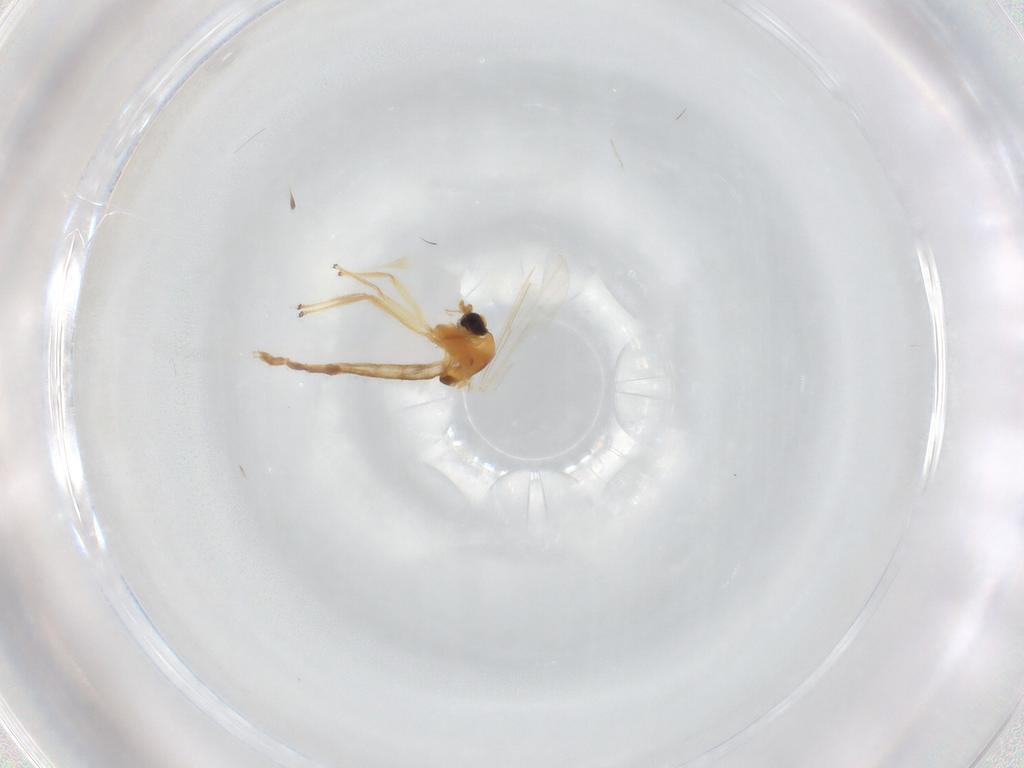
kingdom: Animalia
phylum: Arthropoda
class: Insecta
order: Diptera
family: Chironomidae
